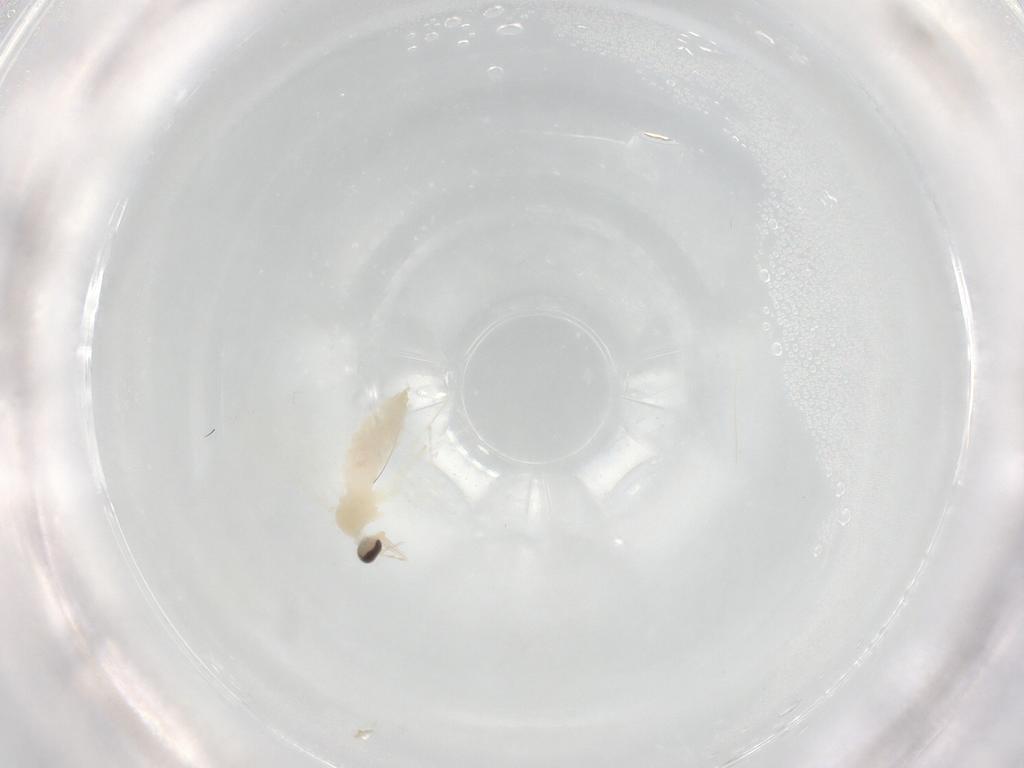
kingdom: Animalia
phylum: Arthropoda
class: Insecta
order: Diptera
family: Cecidomyiidae
